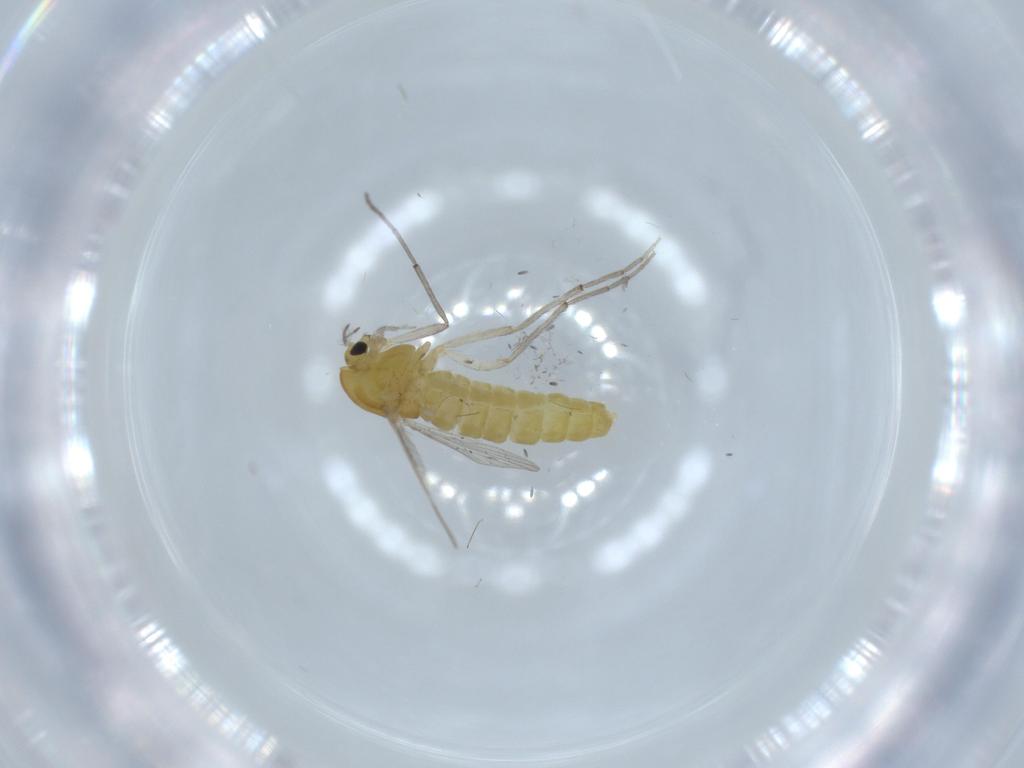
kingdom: Animalia
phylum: Arthropoda
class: Insecta
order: Diptera
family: Chironomidae
